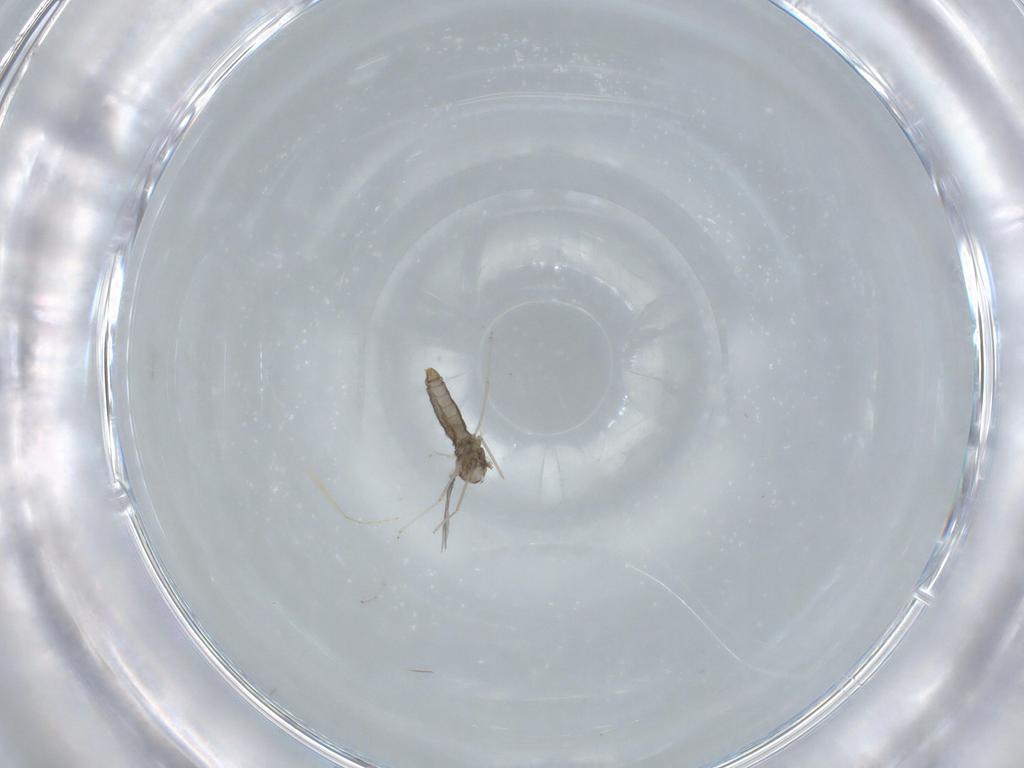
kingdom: Animalia
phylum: Arthropoda
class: Insecta
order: Diptera
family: Cecidomyiidae
